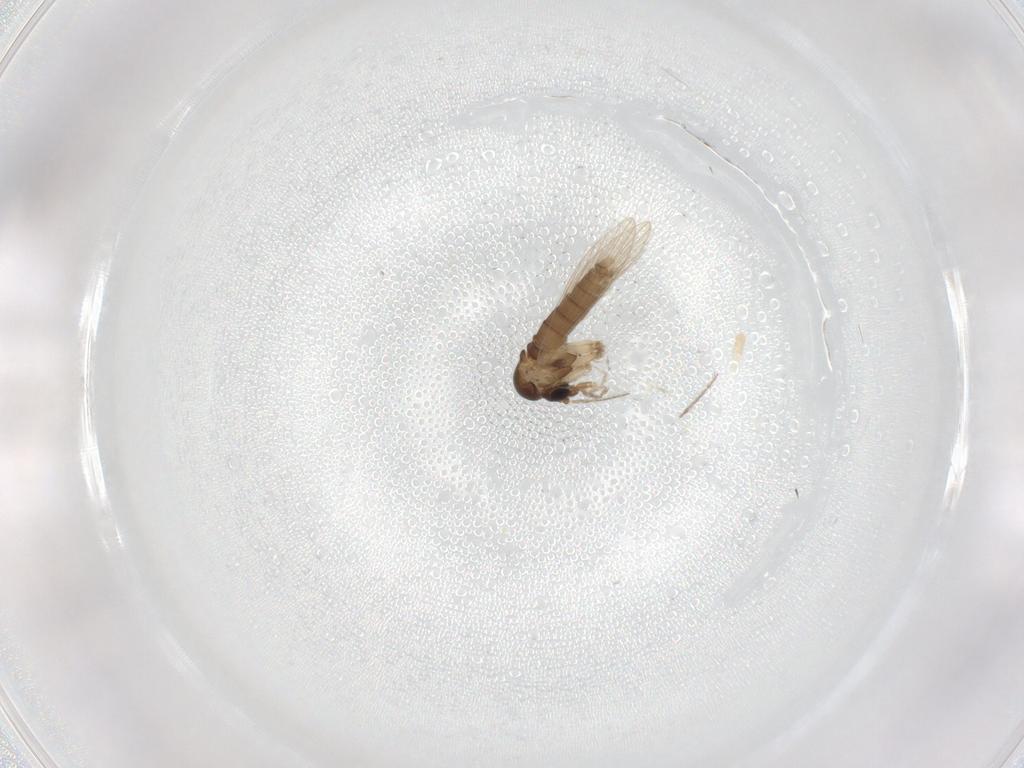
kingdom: Animalia
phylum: Arthropoda
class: Insecta
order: Diptera
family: Psychodidae
